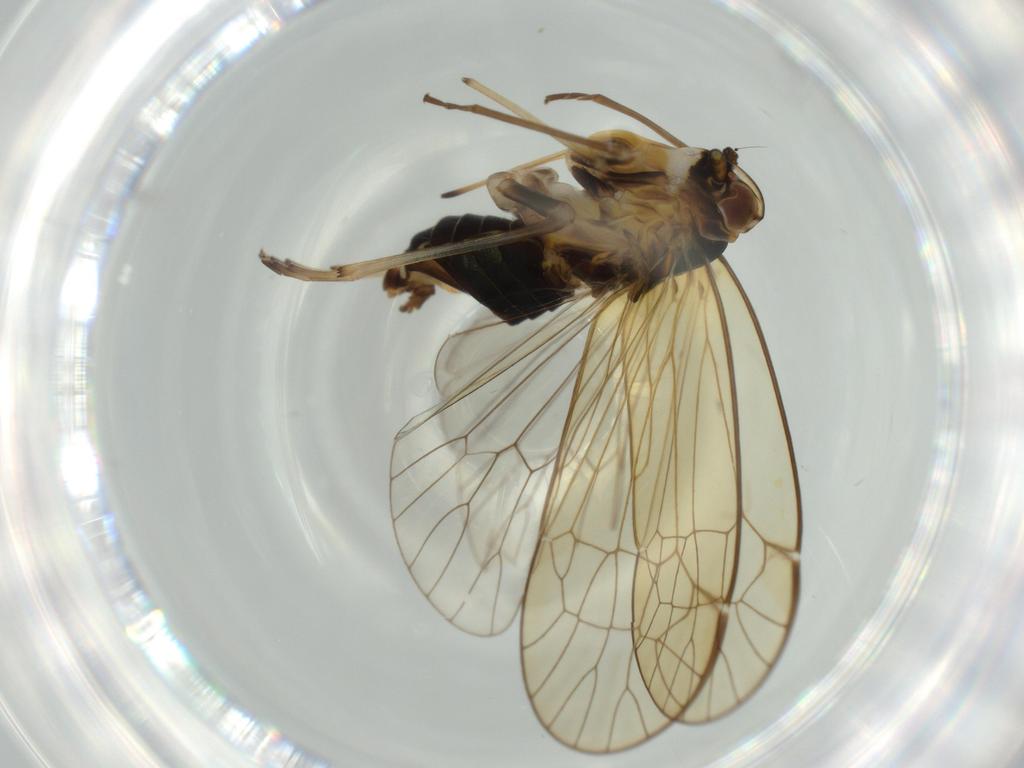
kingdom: Animalia
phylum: Arthropoda
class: Insecta
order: Hemiptera
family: Kinnaridae
